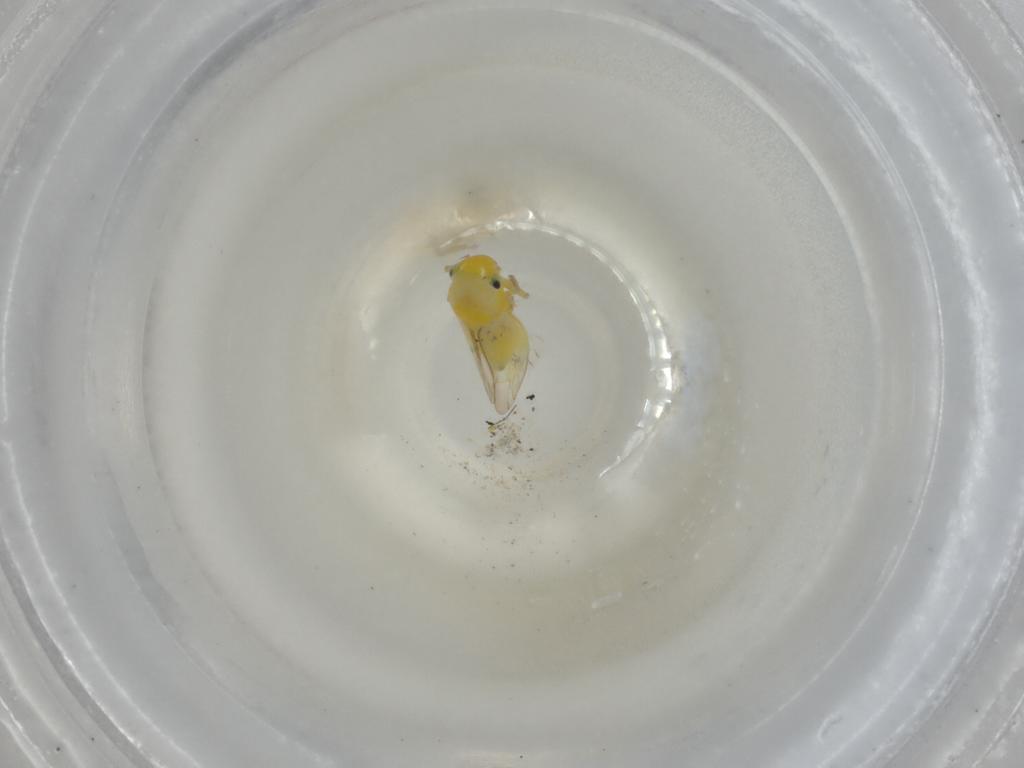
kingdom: Animalia
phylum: Arthropoda
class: Insecta
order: Hemiptera
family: Cicadellidae
